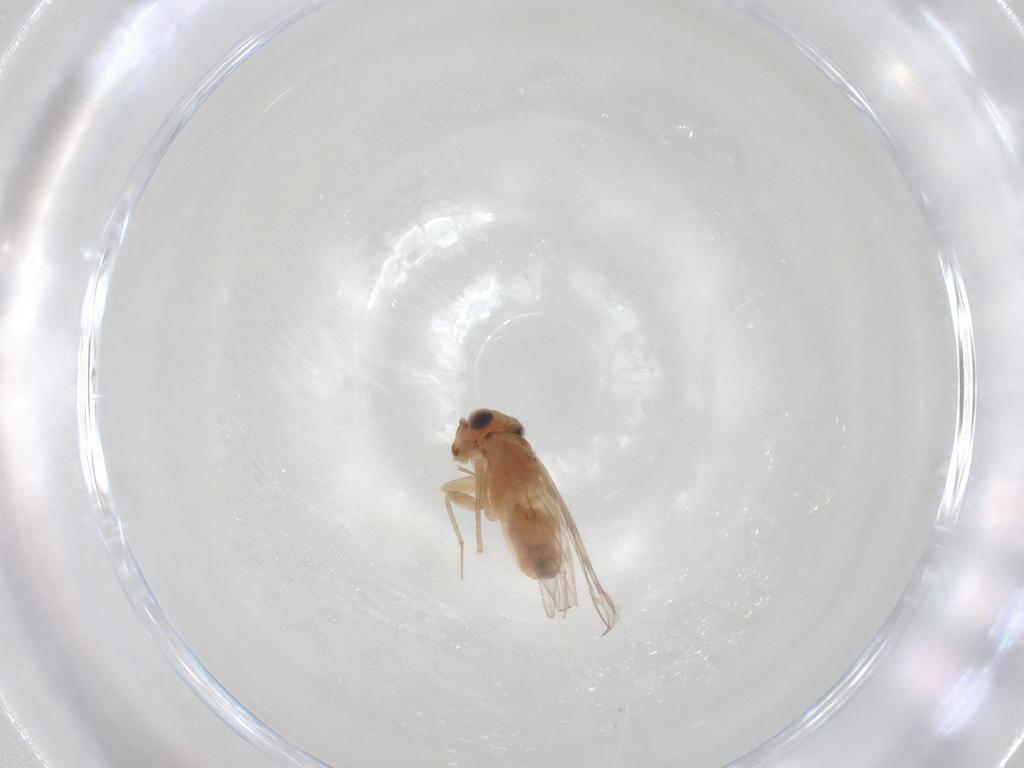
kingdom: Animalia
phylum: Arthropoda
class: Insecta
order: Psocodea
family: Lepidopsocidae
